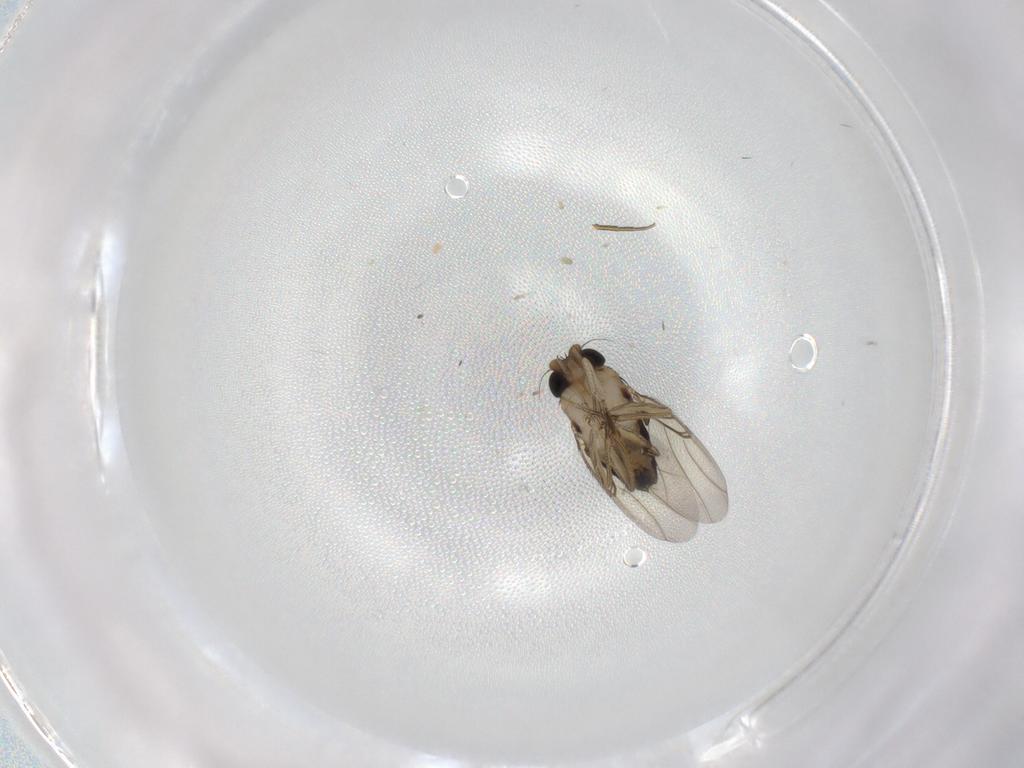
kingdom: Animalia
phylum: Arthropoda
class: Insecta
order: Diptera
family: Phoridae
